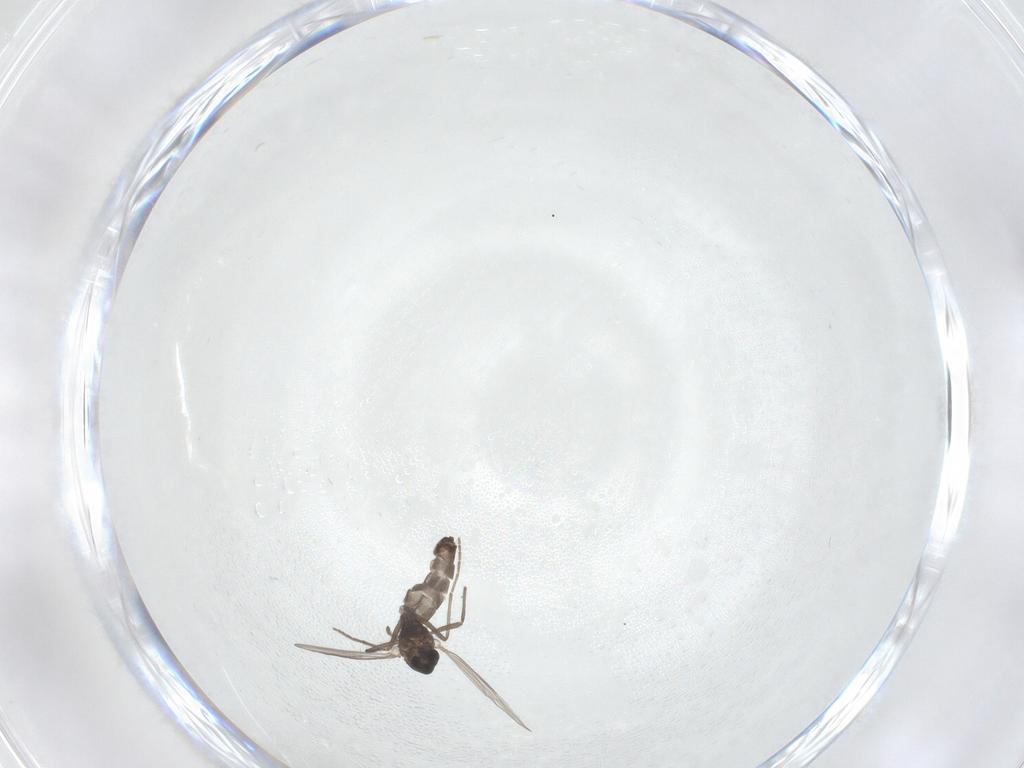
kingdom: Animalia
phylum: Arthropoda
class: Insecta
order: Diptera
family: Chironomidae
